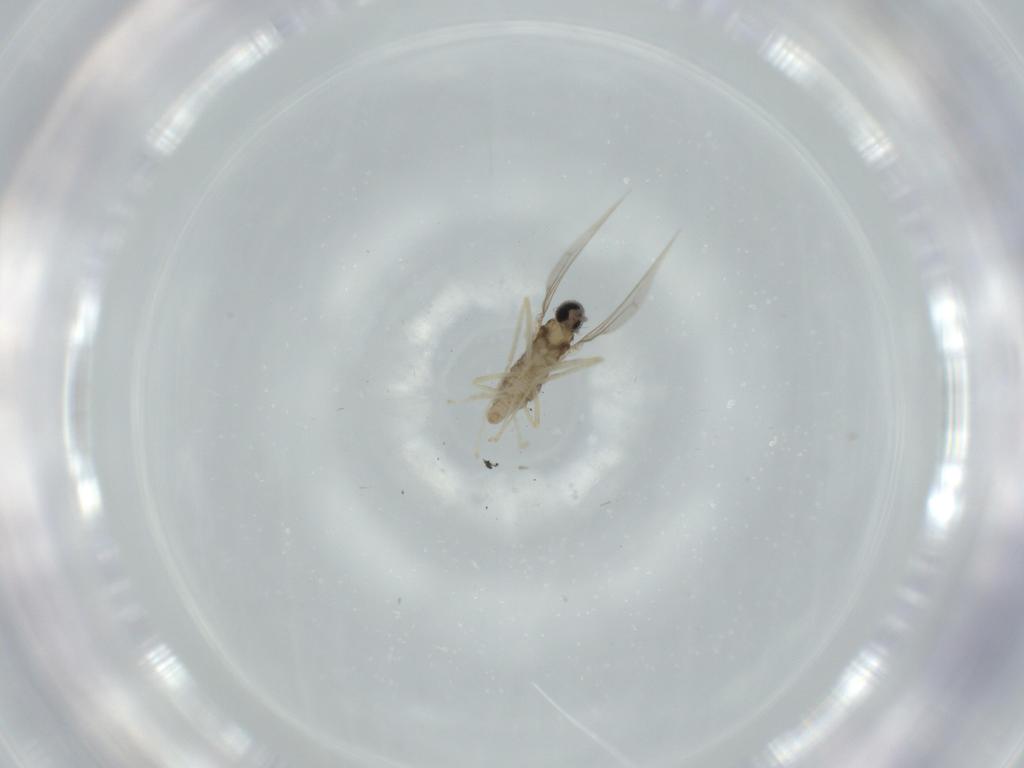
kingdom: Animalia
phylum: Arthropoda
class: Insecta
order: Diptera
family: Cecidomyiidae
